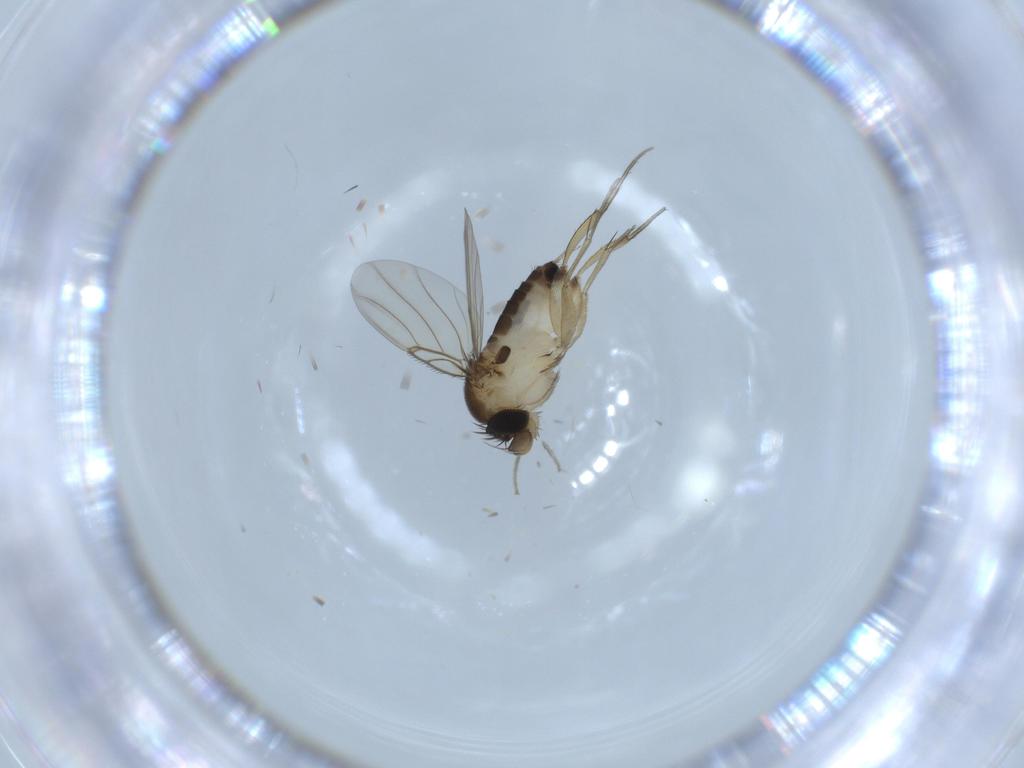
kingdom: Animalia
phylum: Arthropoda
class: Insecta
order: Diptera
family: Phoridae
